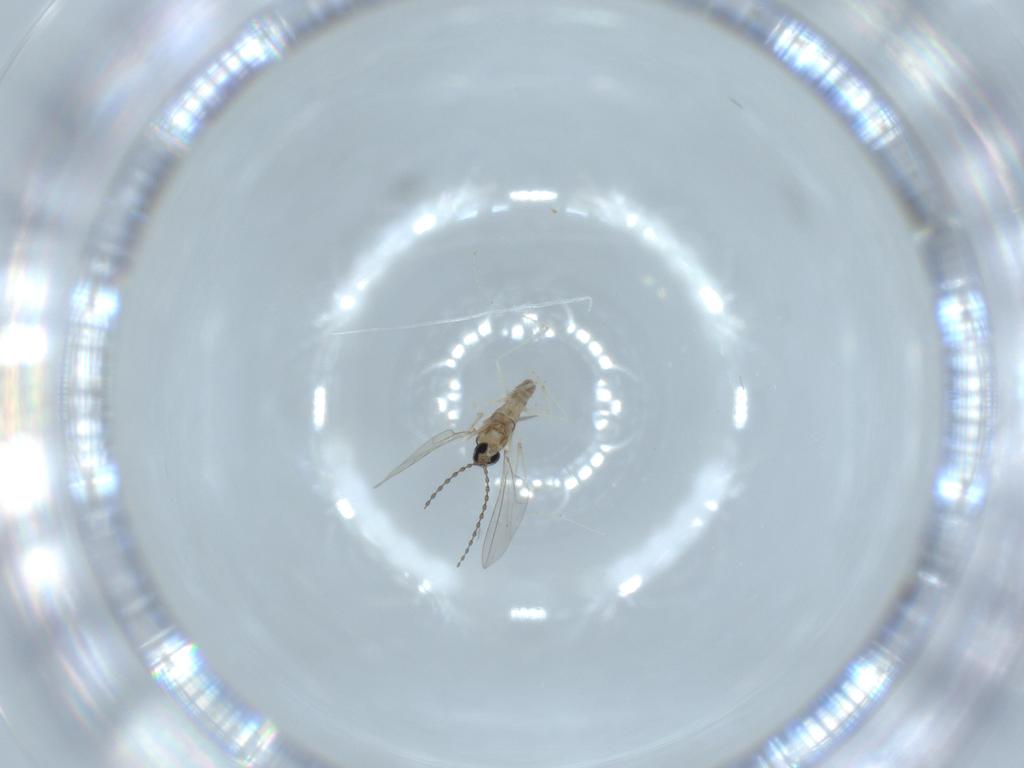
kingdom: Animalia
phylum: Arthropoda
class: Insecta
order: Diptera
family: Cecidomyiidae
